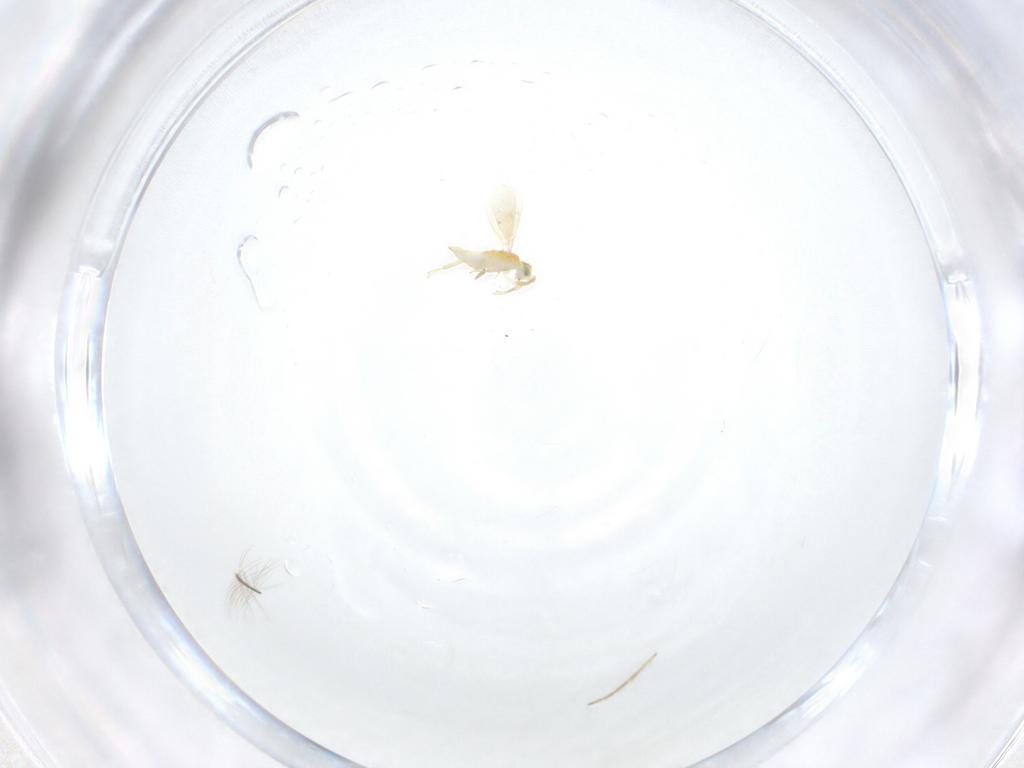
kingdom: Animalia
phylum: Arthropoda
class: Insecta
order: Hymenoptera
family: Aphelinidae
